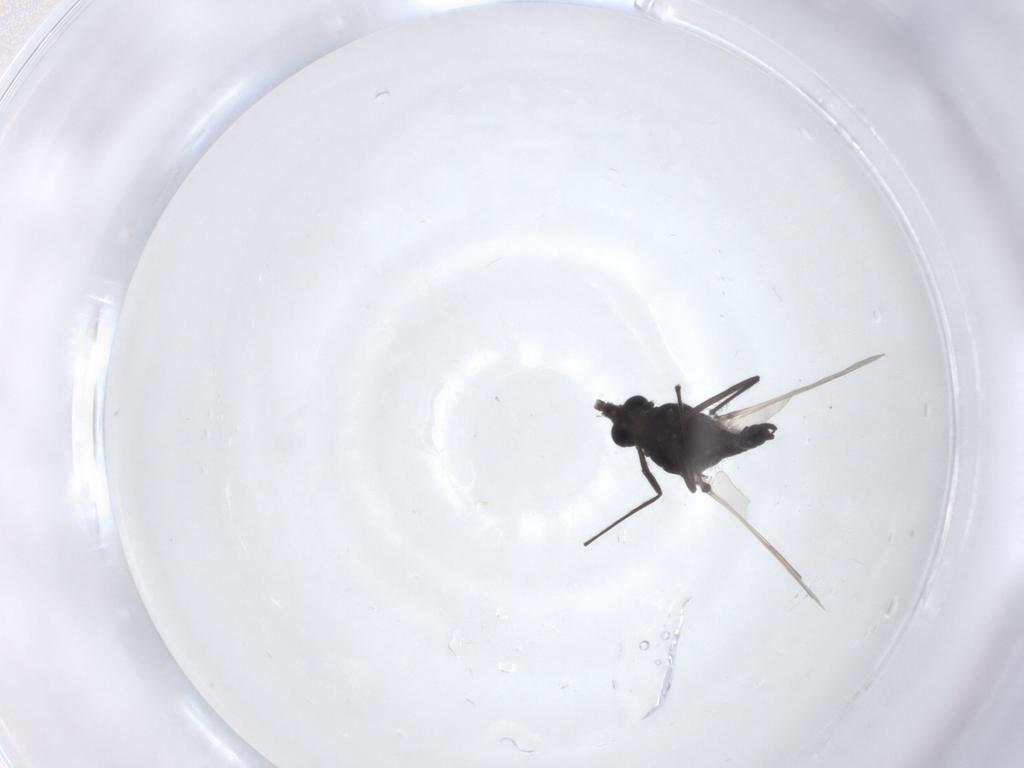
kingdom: Animalia
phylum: Arthropoda
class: Insecta
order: Diptera
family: Chironomidae
